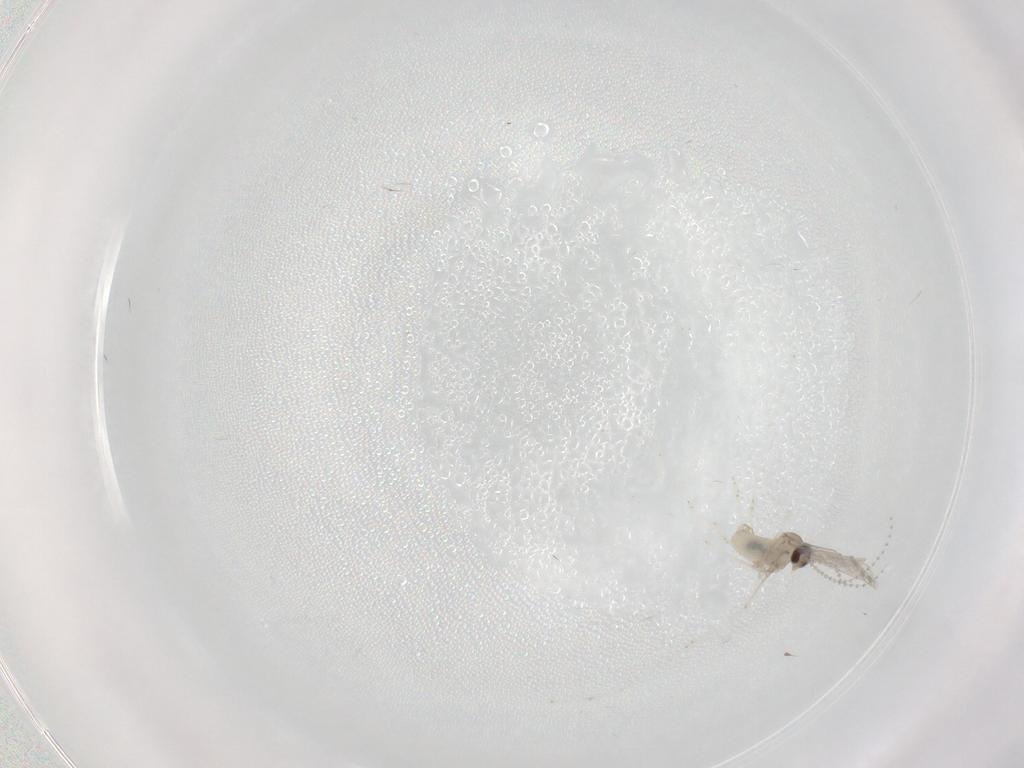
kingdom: Animalia
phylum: Arthropoda
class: Insecta
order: Diptera
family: Cecidomyiidae
